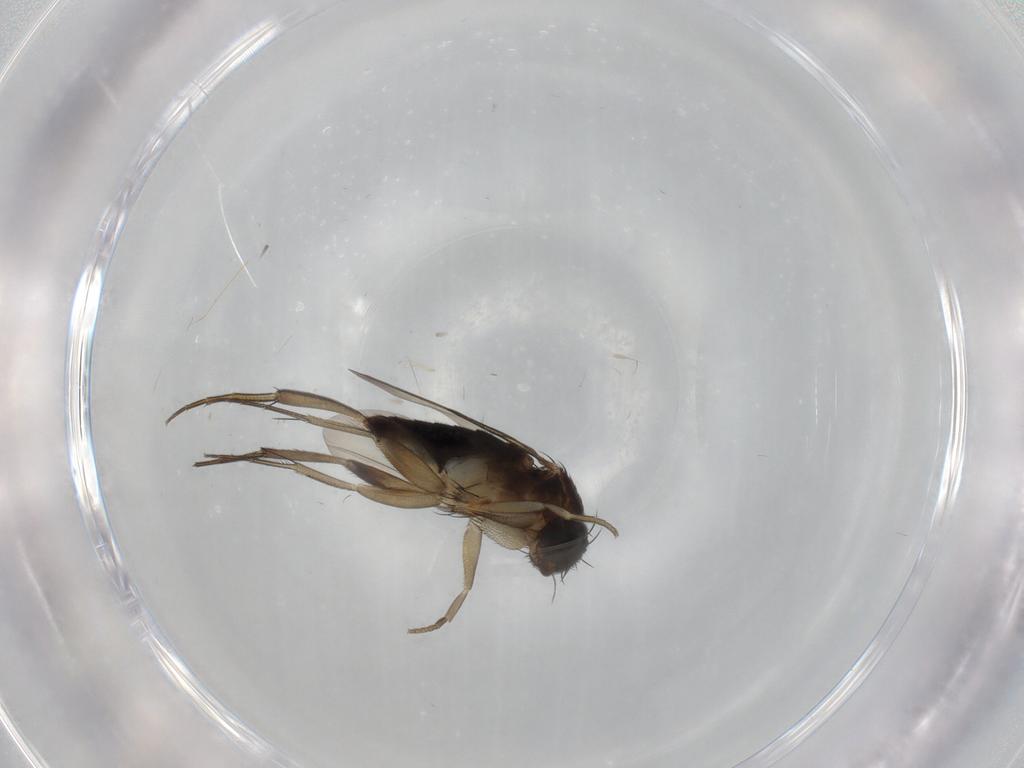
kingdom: Animalia
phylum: Arthropoda
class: Insecta
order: Diptera
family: Phoridae
